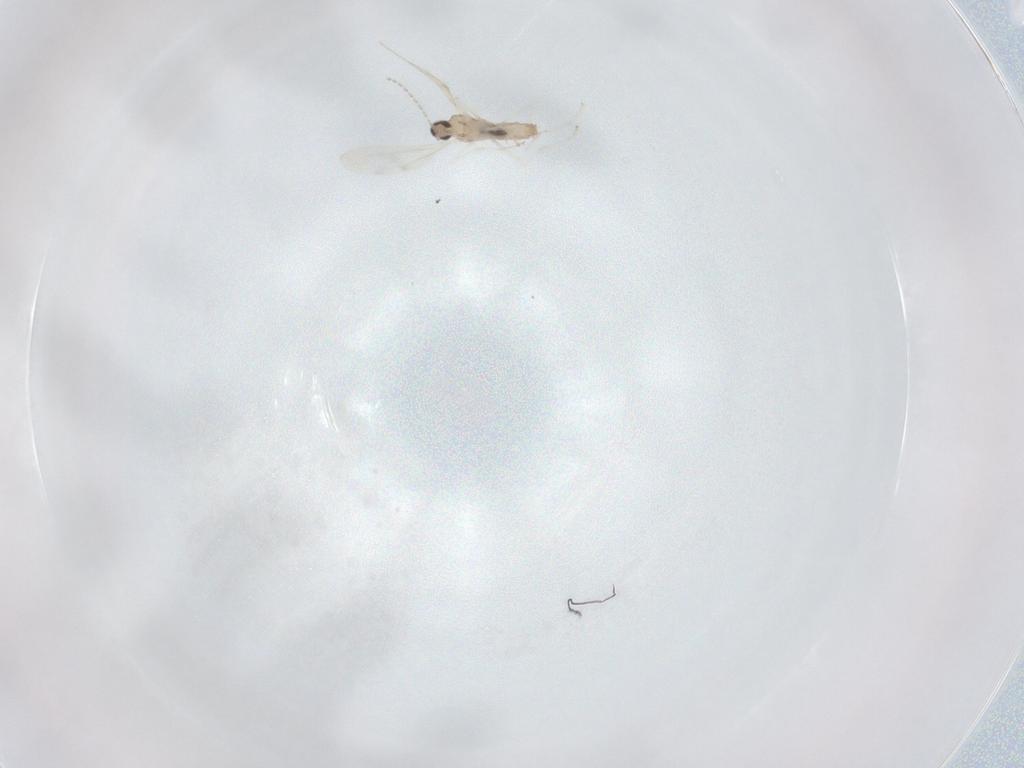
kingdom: Animalia
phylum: Arthropoda
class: Insecta
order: Diptera
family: Cecidomyiidae
